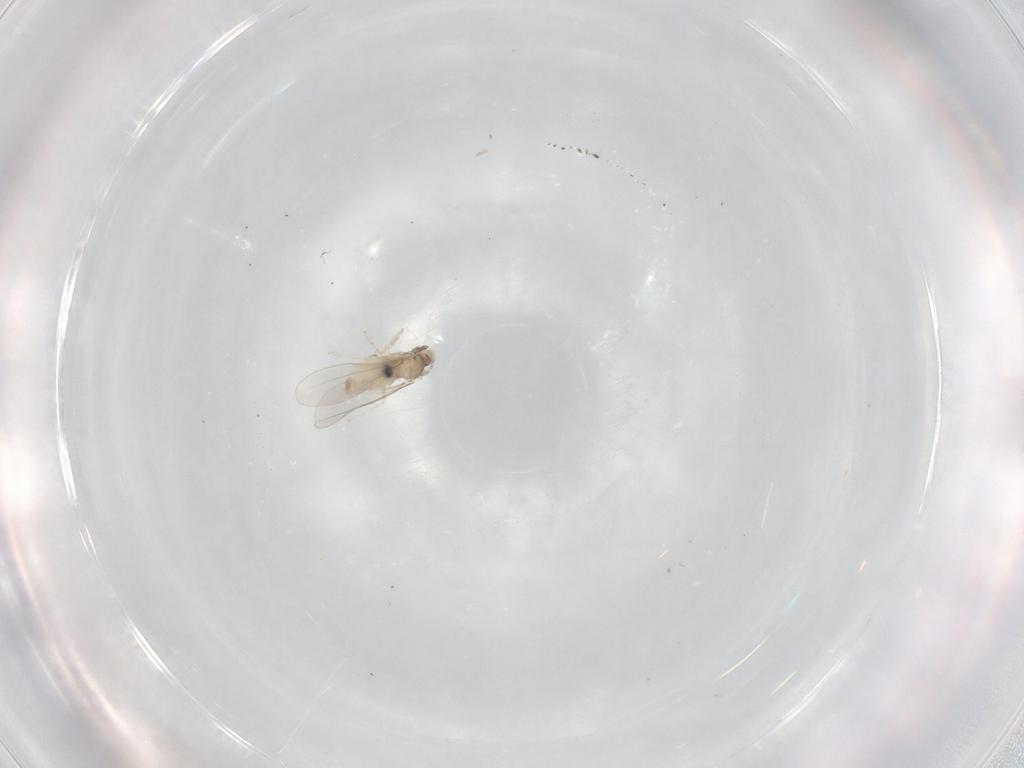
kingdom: Animalia
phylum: Arthropoda
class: Insecta
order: Diptera
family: Cecidomyiidae
